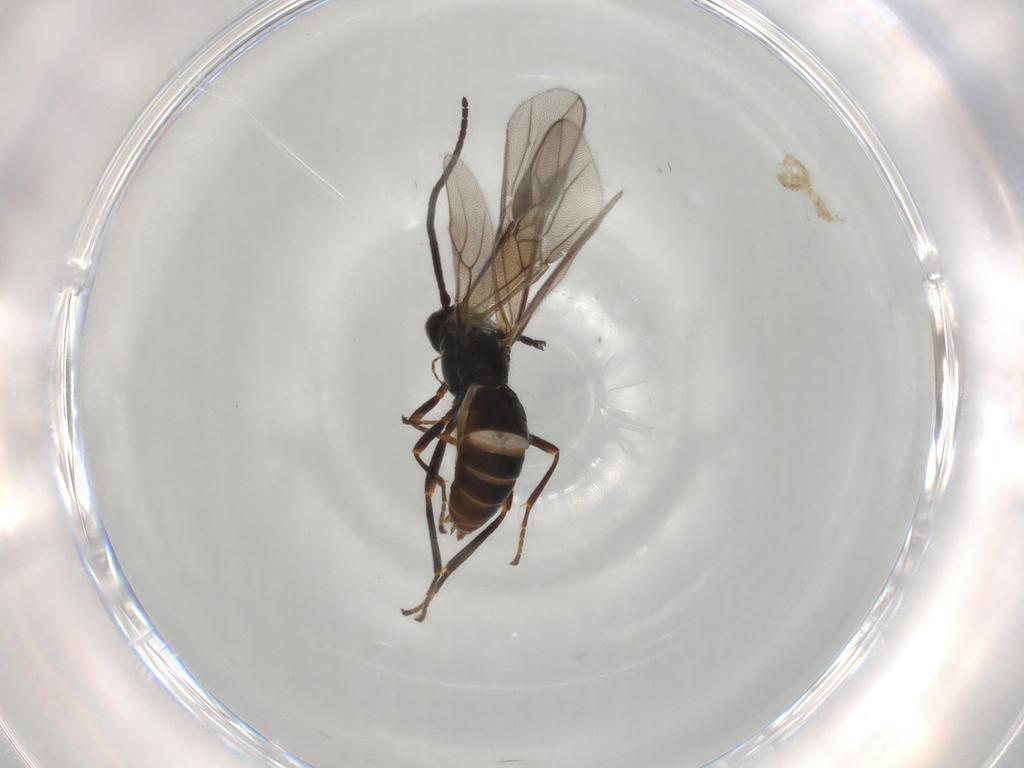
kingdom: Animalia
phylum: Arthropoda
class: Insecta
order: Hymenoptera
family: Braconidae
